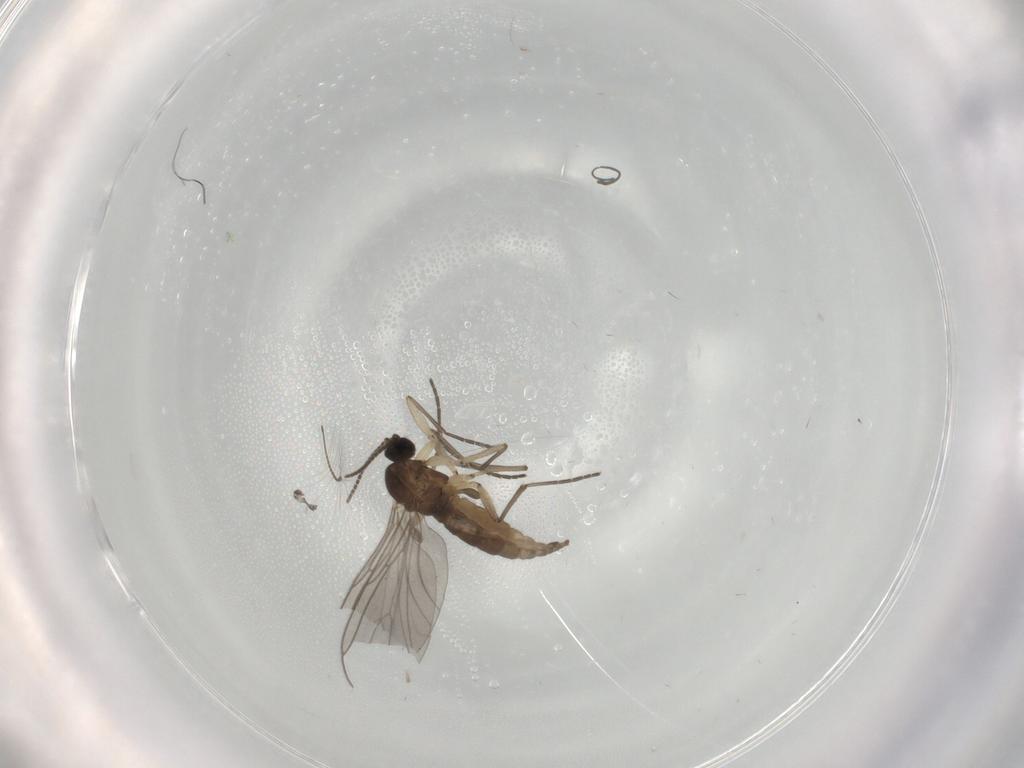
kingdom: Animalia
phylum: Arthropoda
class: Insecta
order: Diptera
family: Sciaridae
